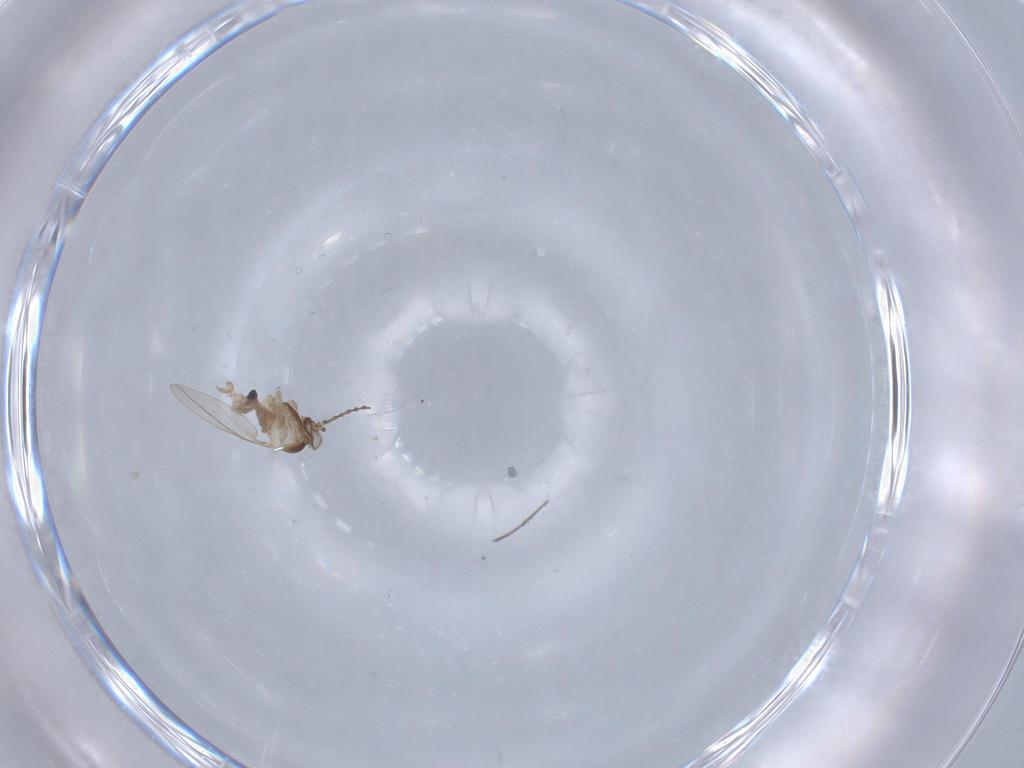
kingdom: Animalia
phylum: Arthropoda
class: Insecta
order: Diptera
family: Cecidomyiidae
